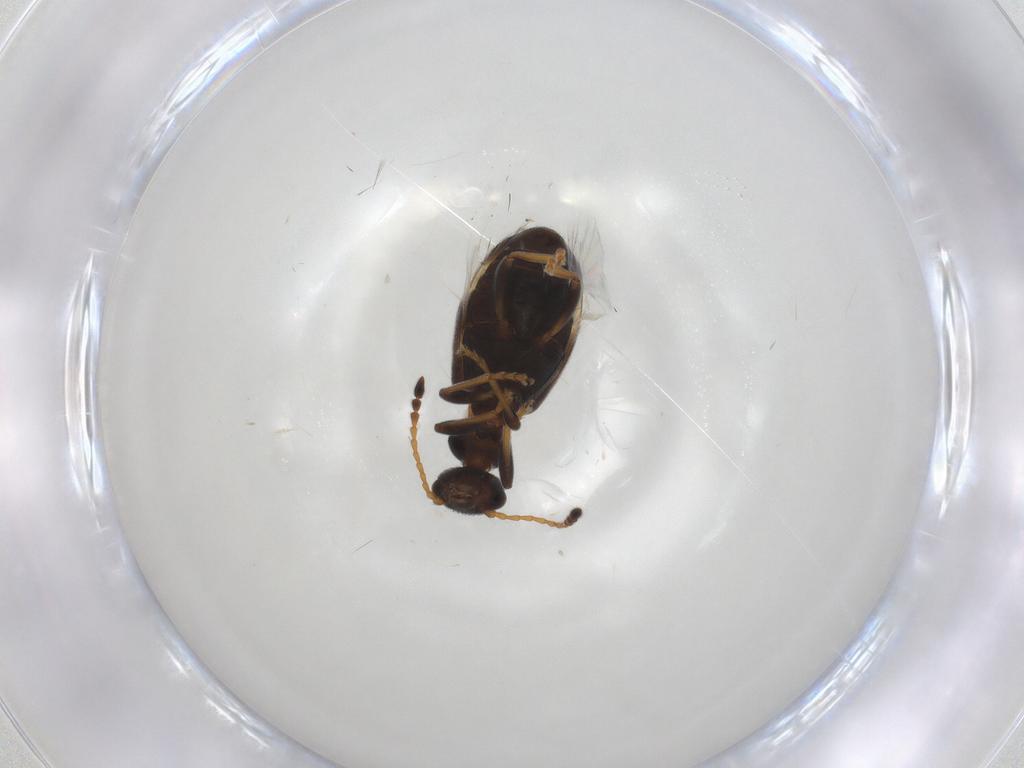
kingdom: Animalia
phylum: Arthropoda
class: Insecta
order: Coleoptera
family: Anthicidae
